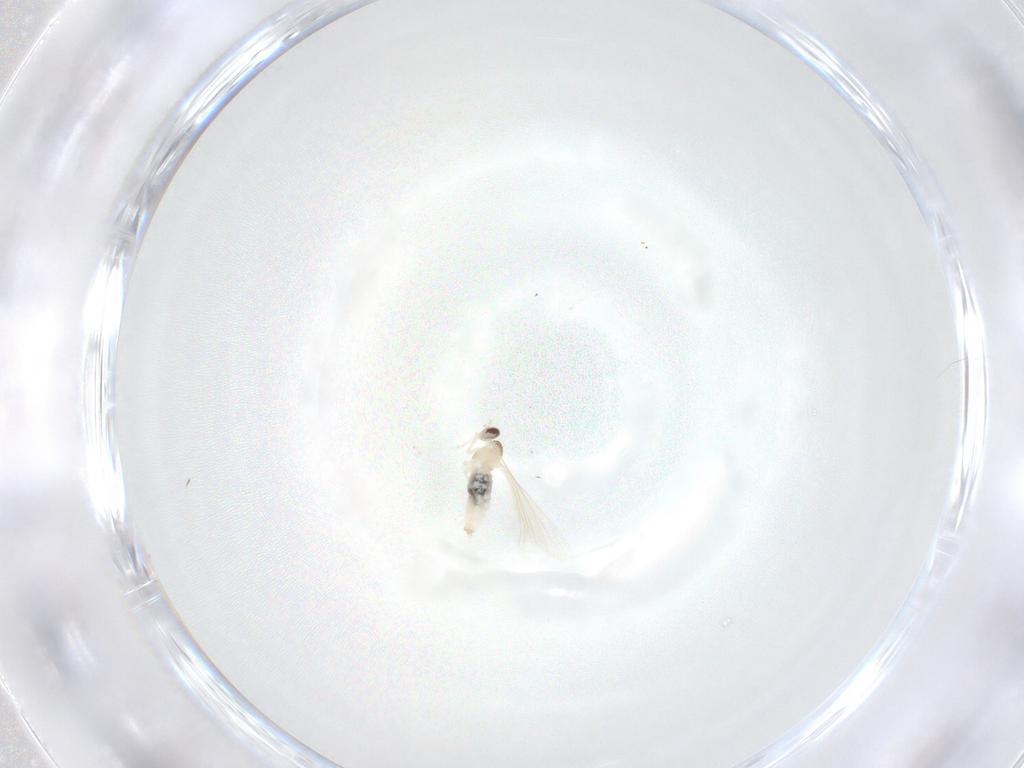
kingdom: Animalia
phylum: Arthropoda
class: Insecta
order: Diptera
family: Cecidomyiidae
